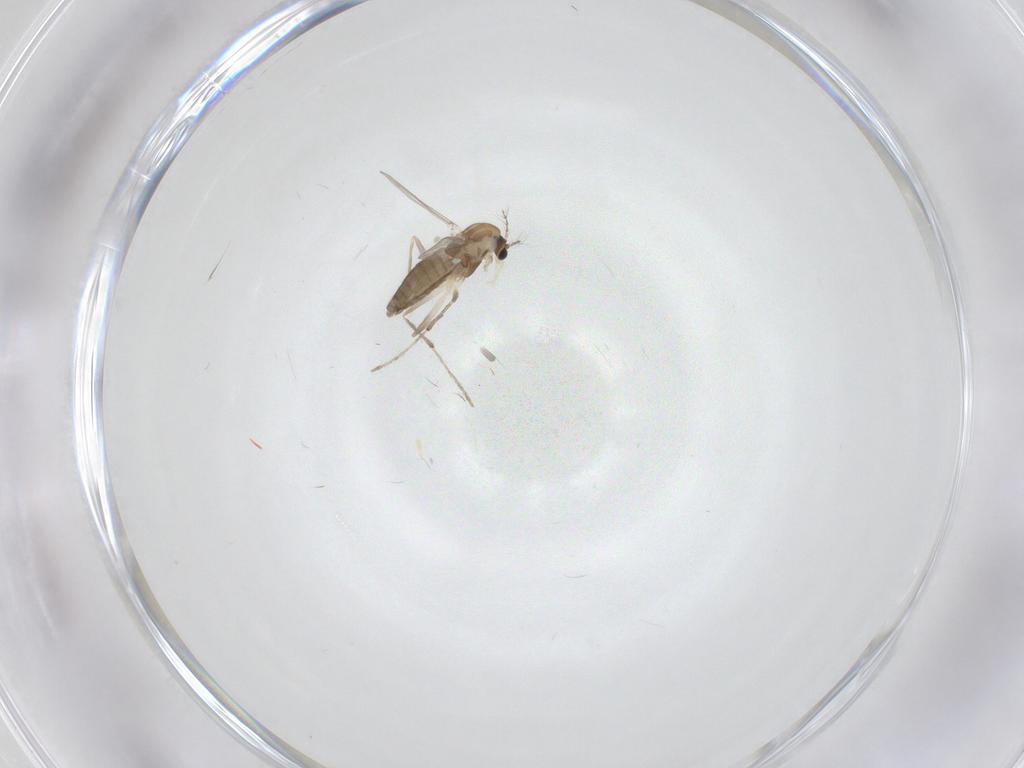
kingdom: Animalia
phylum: Arthropoda
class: Insecta
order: Diptera
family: Chironomidae
